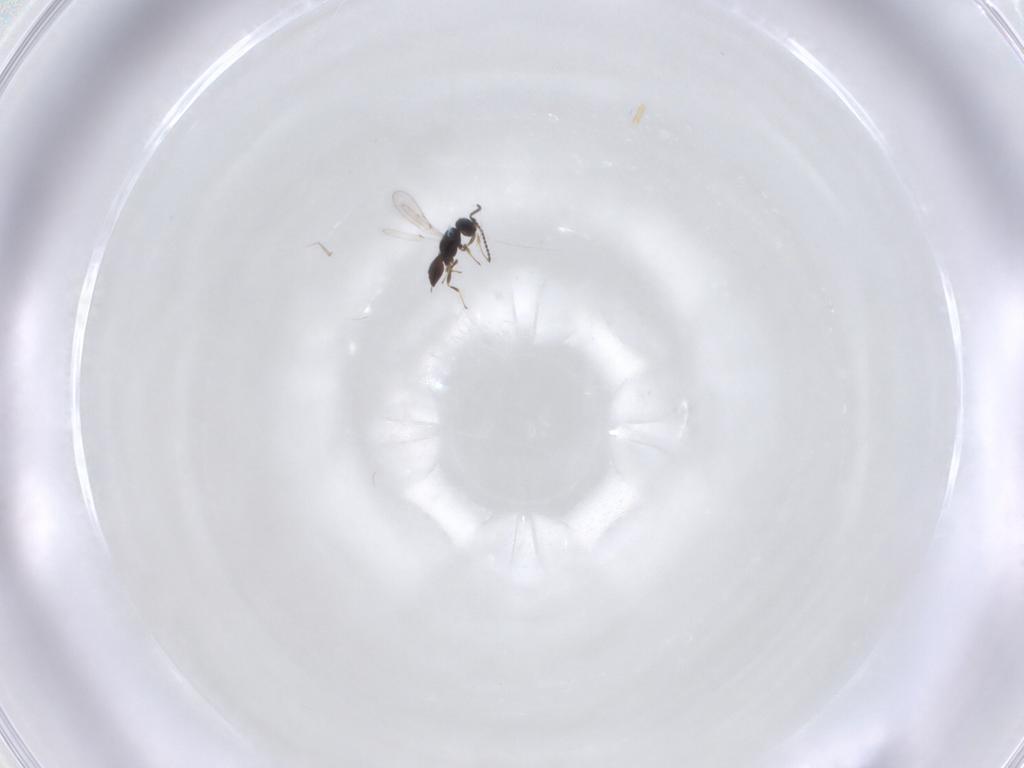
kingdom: Animalia
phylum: Arthropoda
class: Insecta
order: Hymenoptera
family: Scelionidae
